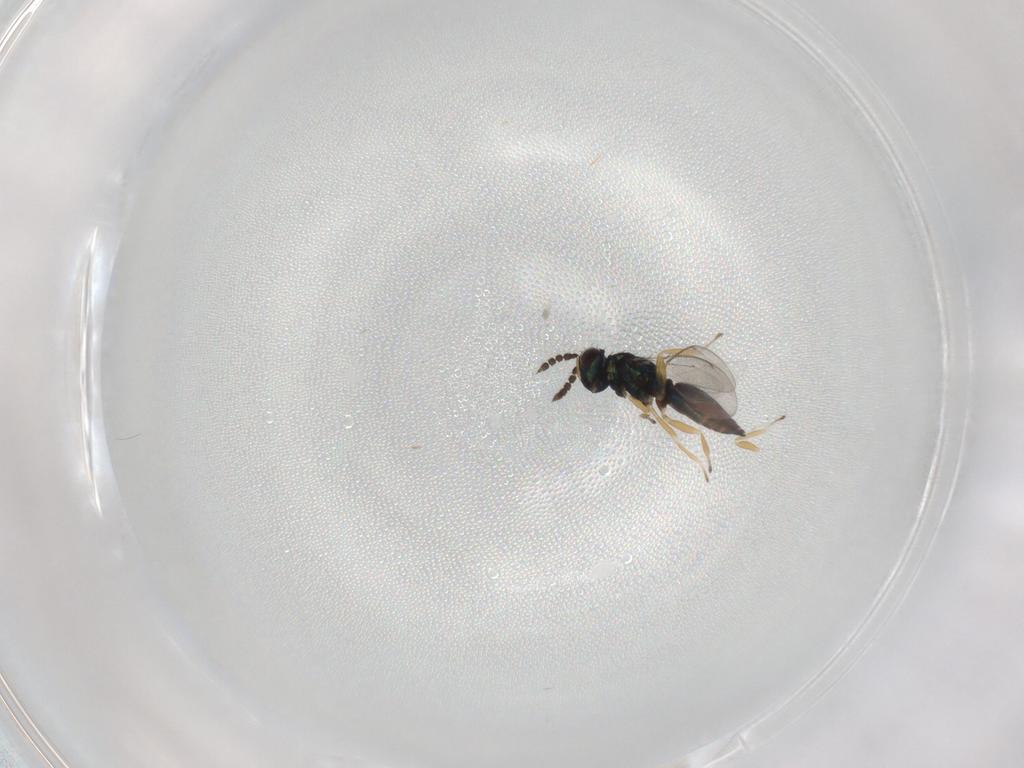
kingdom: Animalia
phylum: Arthropoda
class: Insecta
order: Hymenoptera
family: Eulophidae
